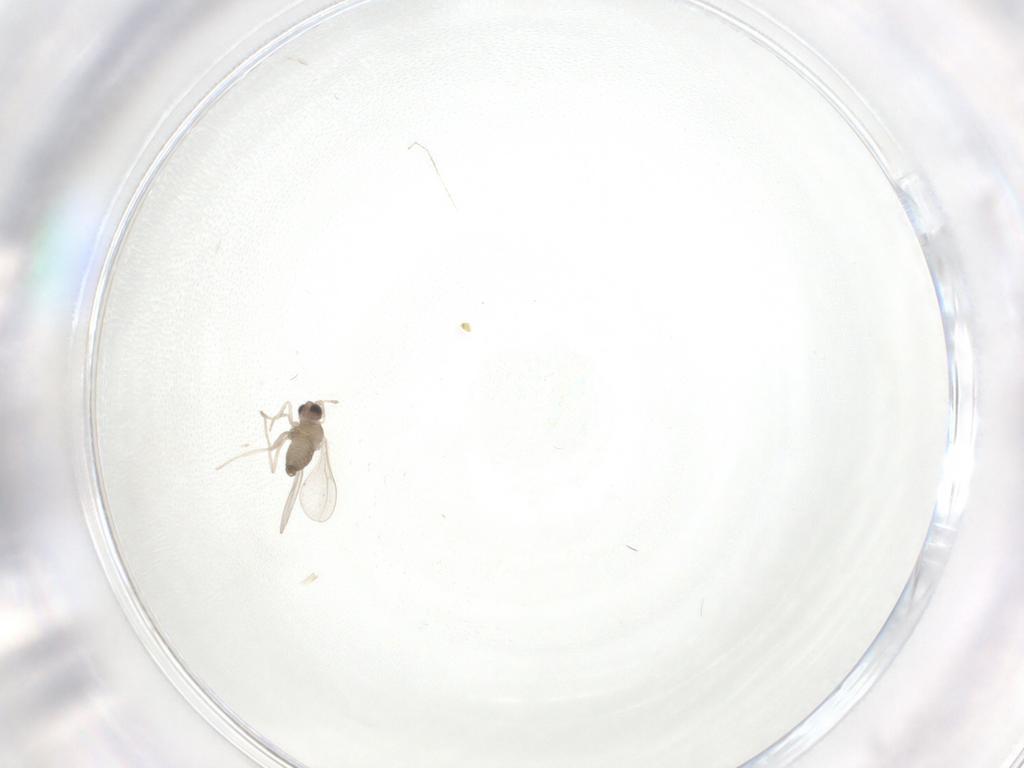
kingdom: Animalia
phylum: Arthropoda
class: Insecta
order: Diptera
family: Cecidomyiidae
